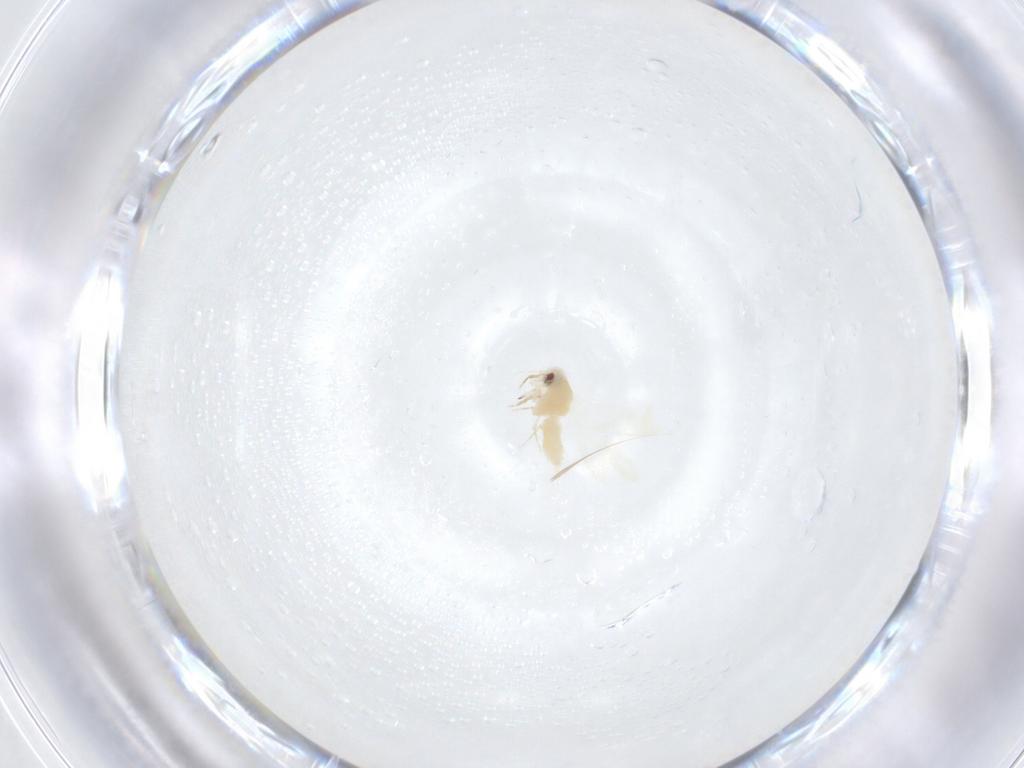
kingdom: Animalia
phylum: Arthropoda
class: Insecta
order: Hemiptera
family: Aleyrodidae
